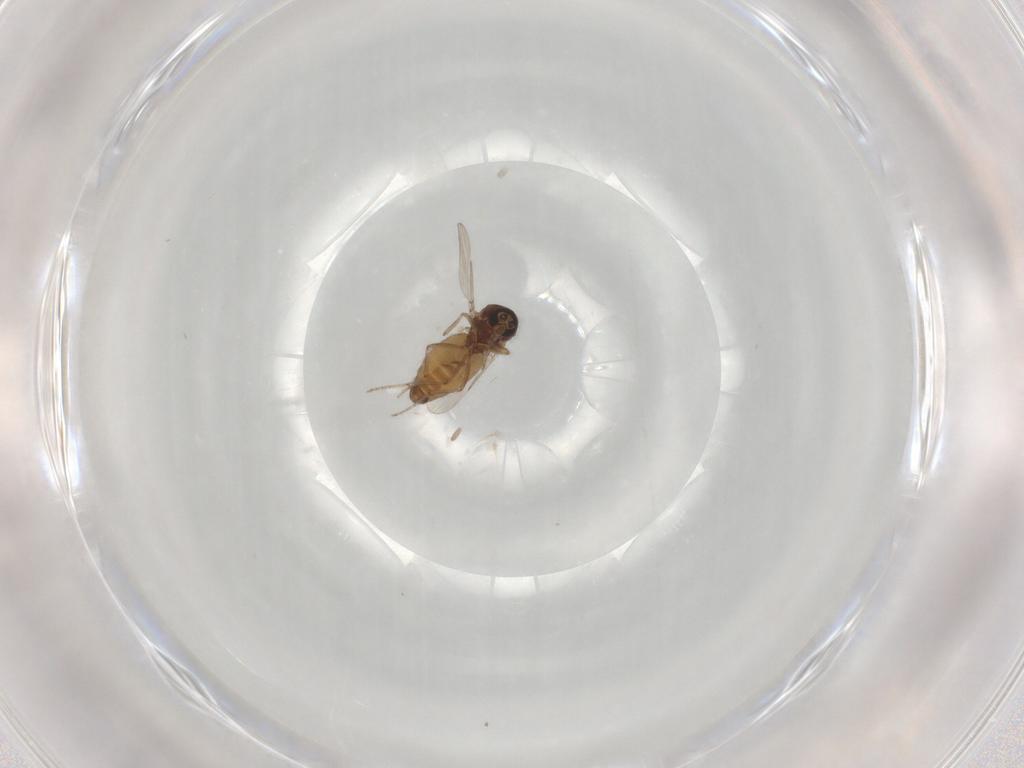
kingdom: Animalia
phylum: Arthropoda
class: Insecta
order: Diptera
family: Ceratopogonidae
